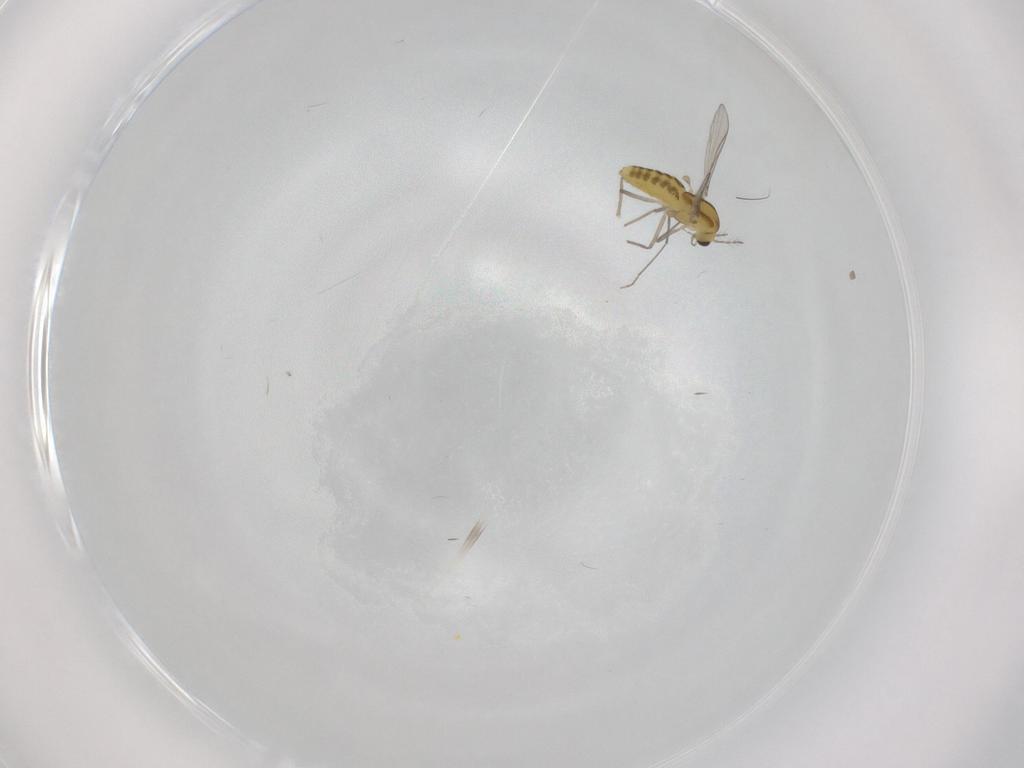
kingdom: Animalia
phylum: Arthropoda
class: Insecta
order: Diptera
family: Chironomidae
